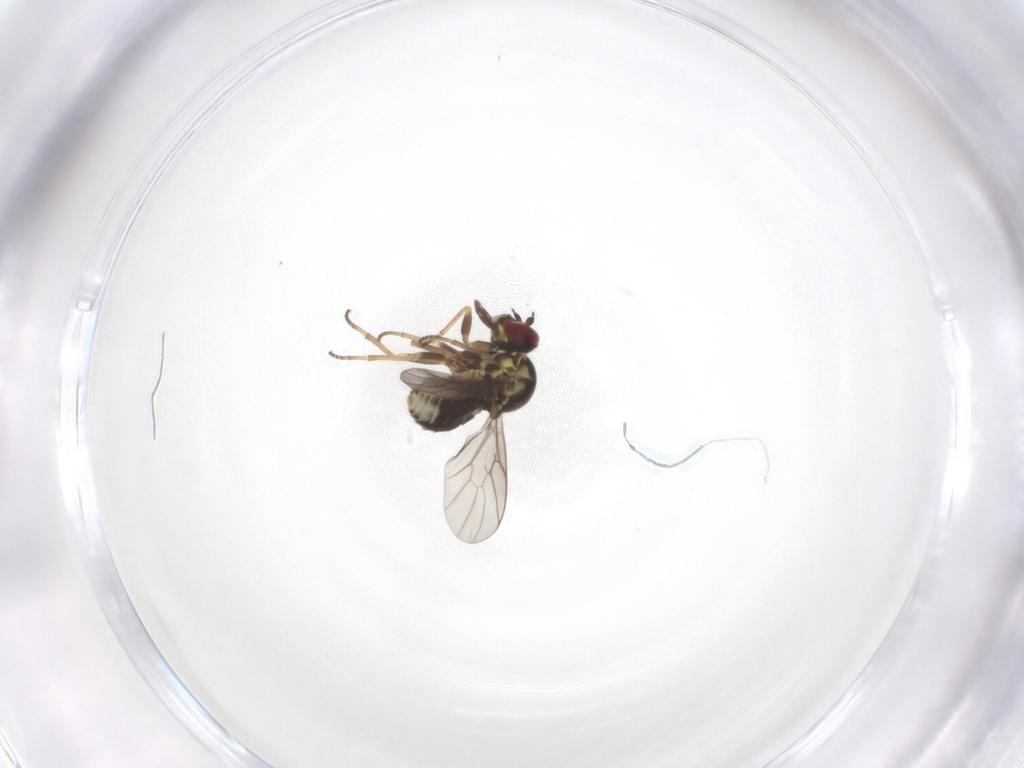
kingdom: Animalia
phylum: Arthropoda
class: Insecta
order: Diptera
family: Bombyliidae
